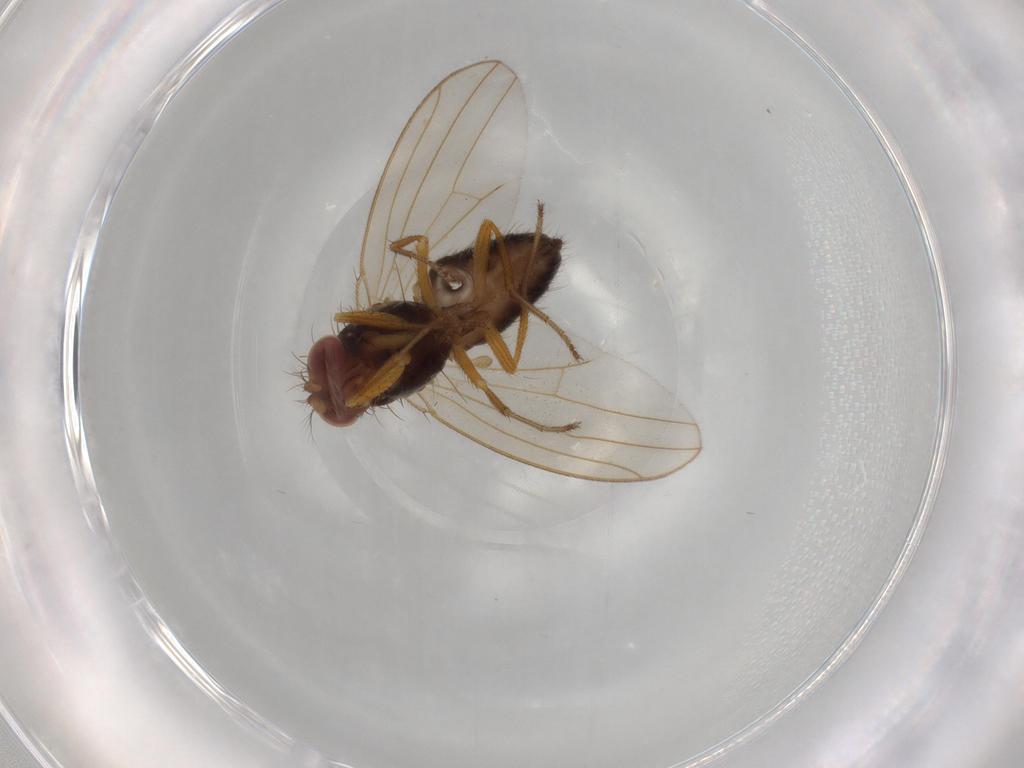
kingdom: Animalia
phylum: Arthropoda
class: Insecta
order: Diptera
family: Drosophilidae
